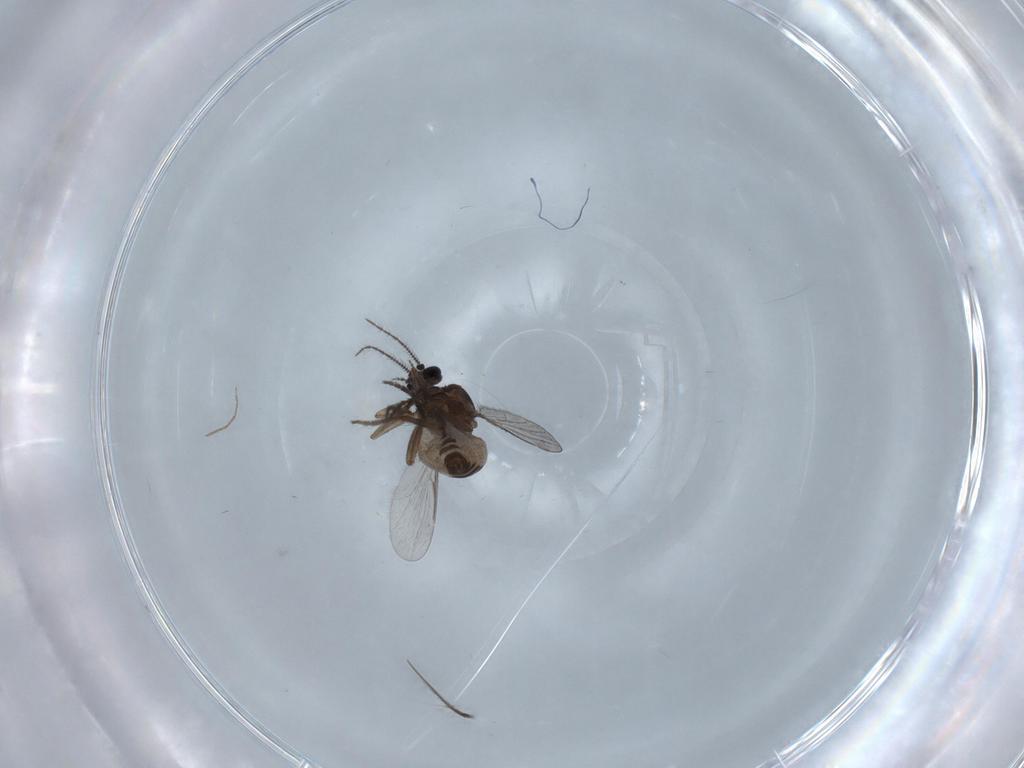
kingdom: Animalia
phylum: Arthropoda
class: Insecta
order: Diptera
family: Chironomidae
